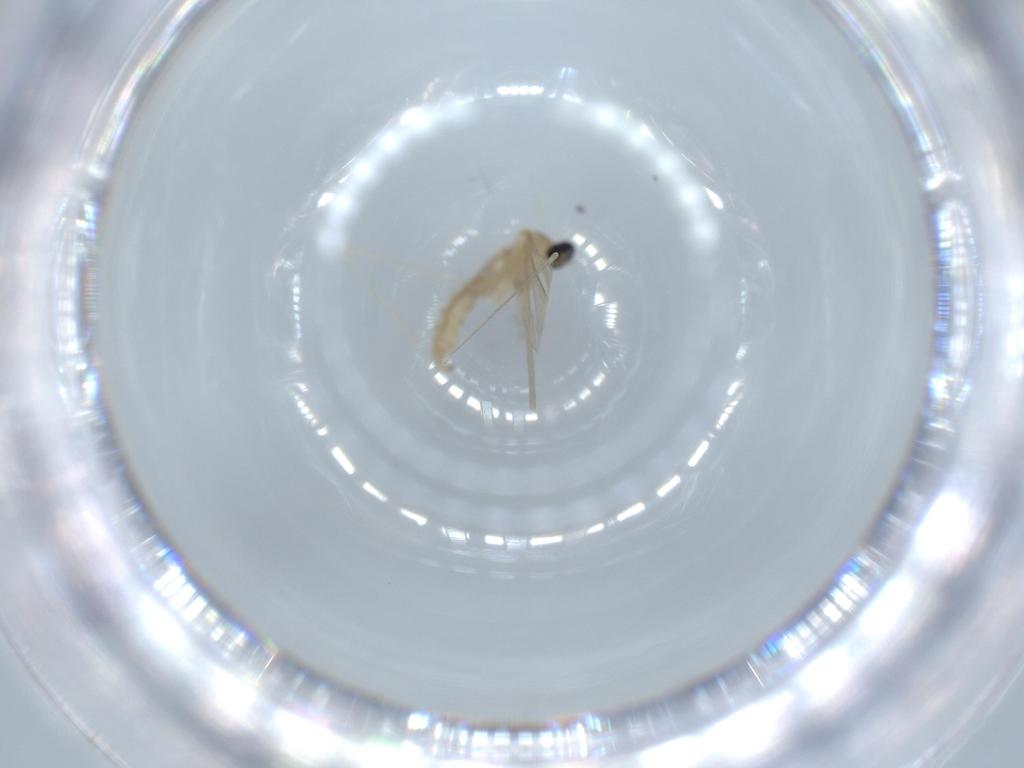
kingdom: Animalia
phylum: Arthropoda
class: Insecta
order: Diptera
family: Cecidomyiidae
